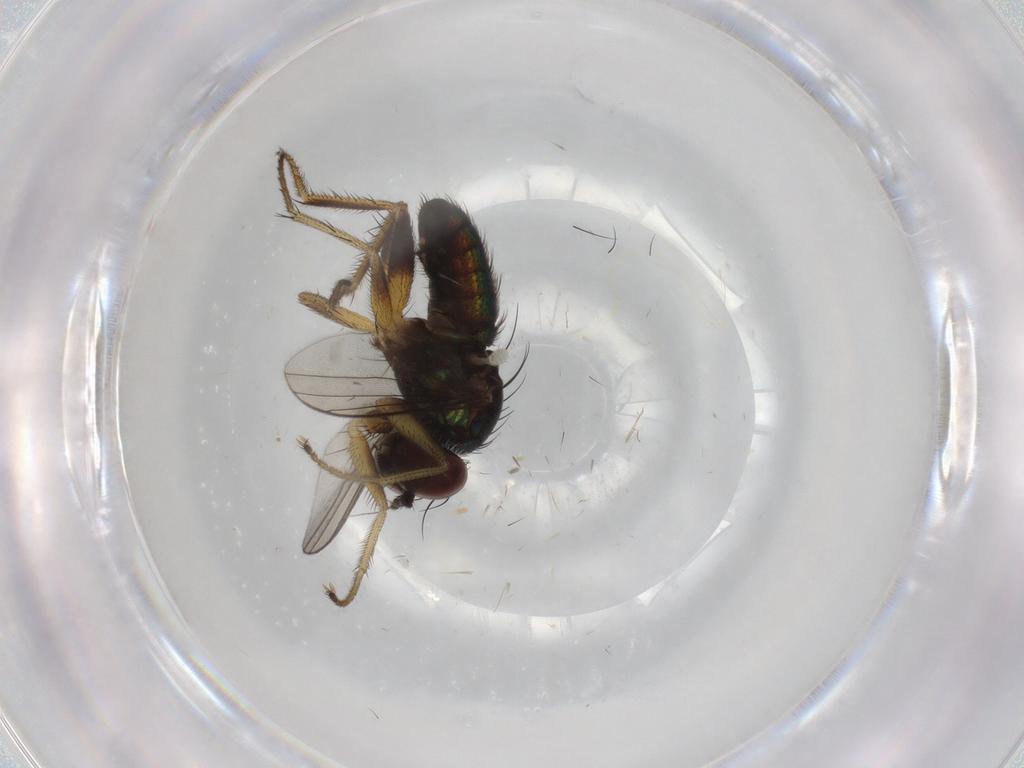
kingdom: Animalia
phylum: Arthropoda
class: Insecta
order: Diptera
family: Dolichopodidae
